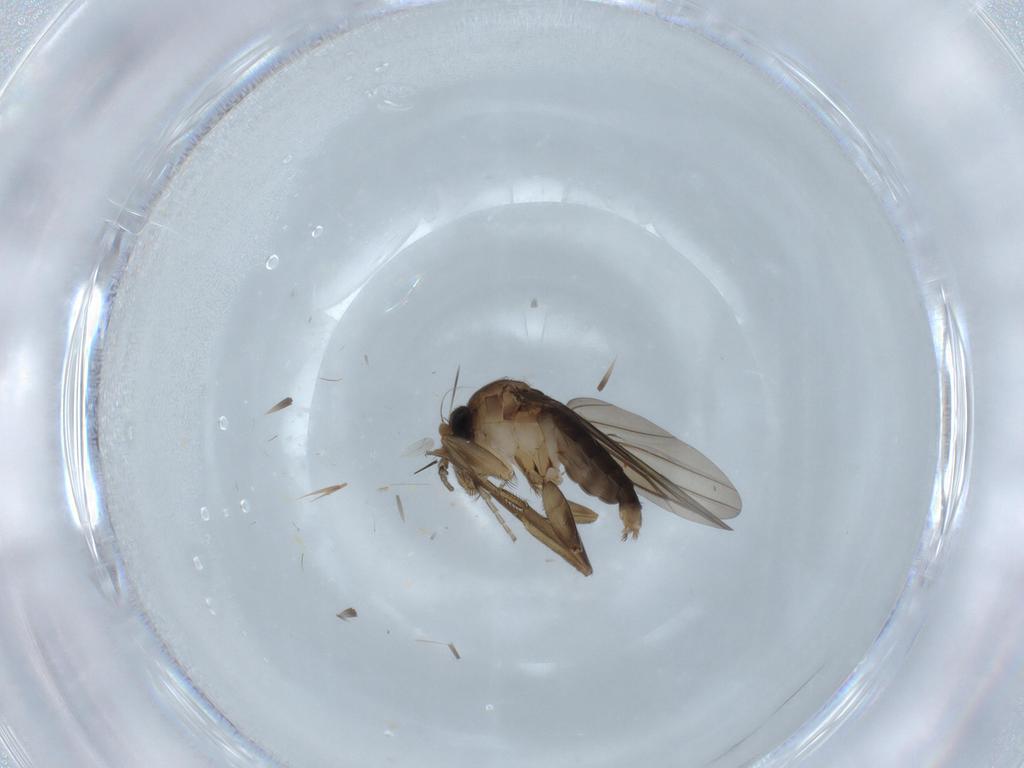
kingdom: Animalia
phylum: Arthropoda
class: Insecta
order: Diptera
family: Phoridae
